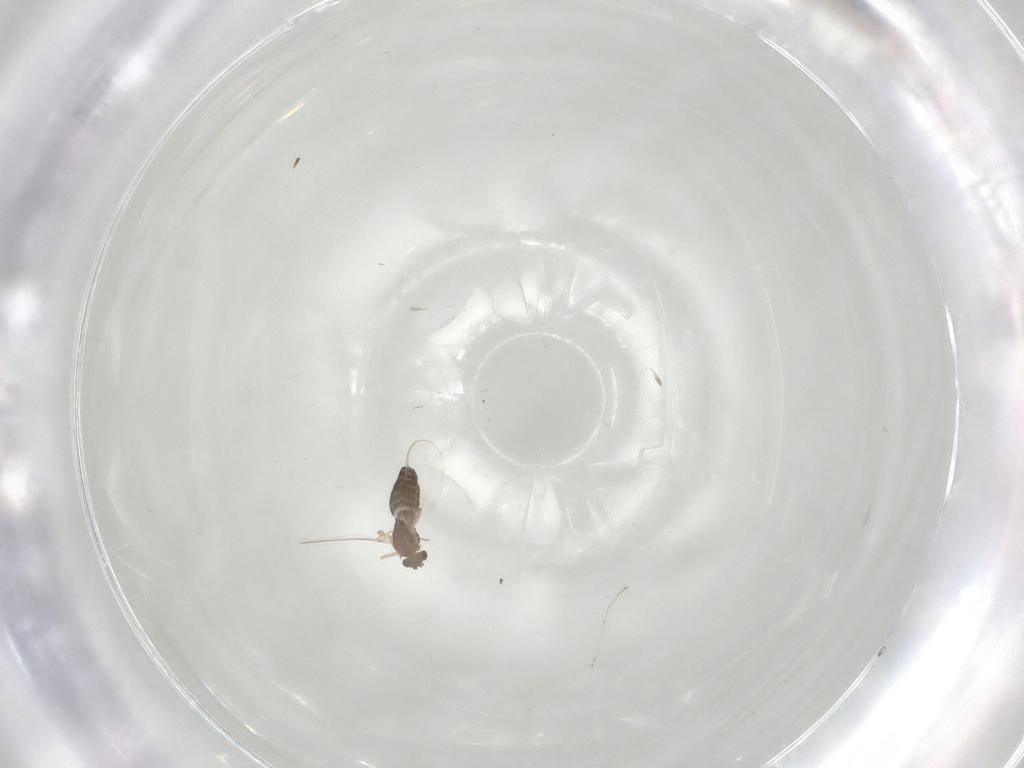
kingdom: Animalia
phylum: Arthropoda
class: Insecta
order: Diptera
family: Cecidomyiidae
